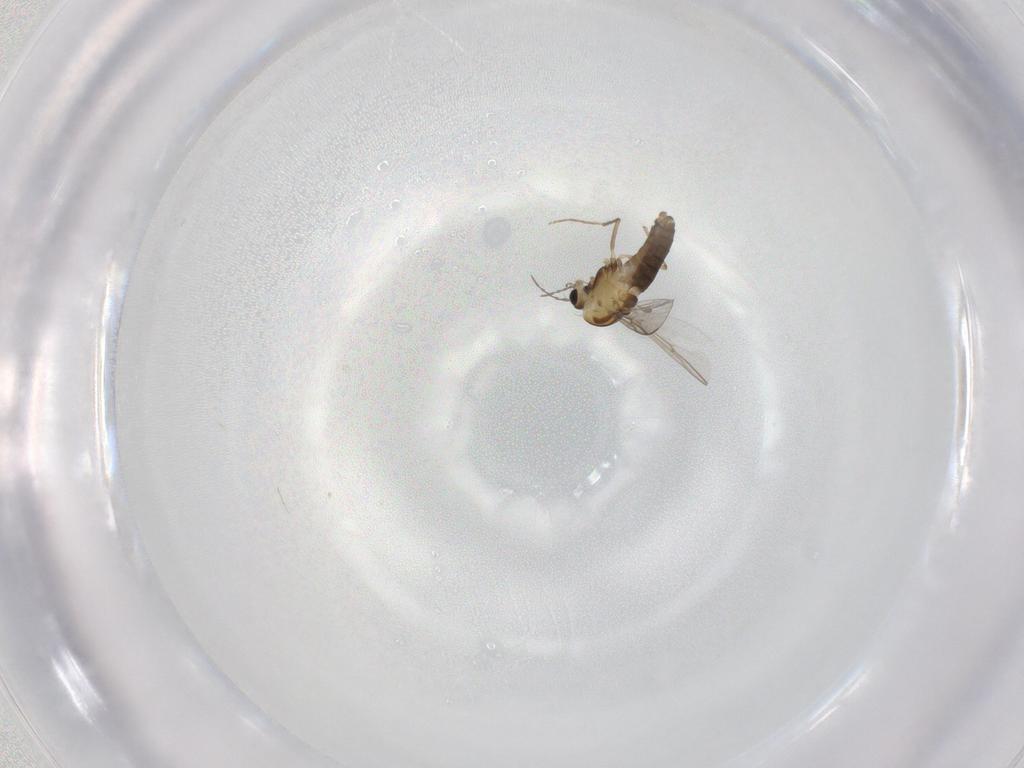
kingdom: Animalia
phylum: Arthropoda
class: Insecta
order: Diptera
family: Chironomidae
